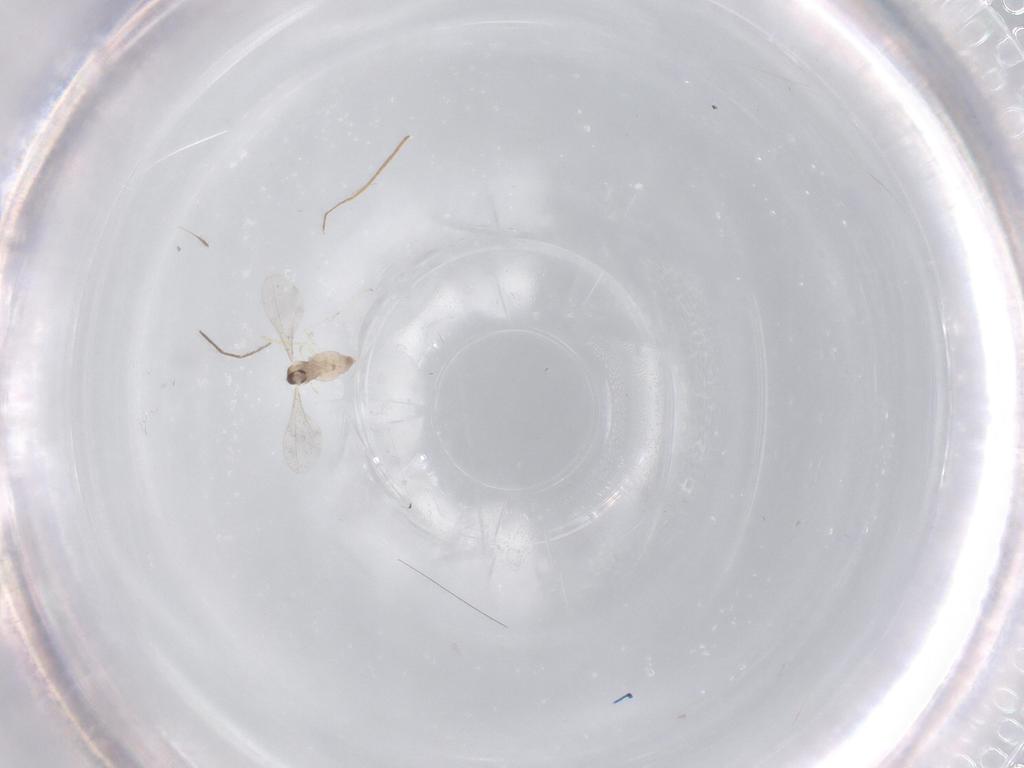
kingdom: Animalia
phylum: Arthropoda
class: Insecta
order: Diptera
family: Cecidomyiidae
